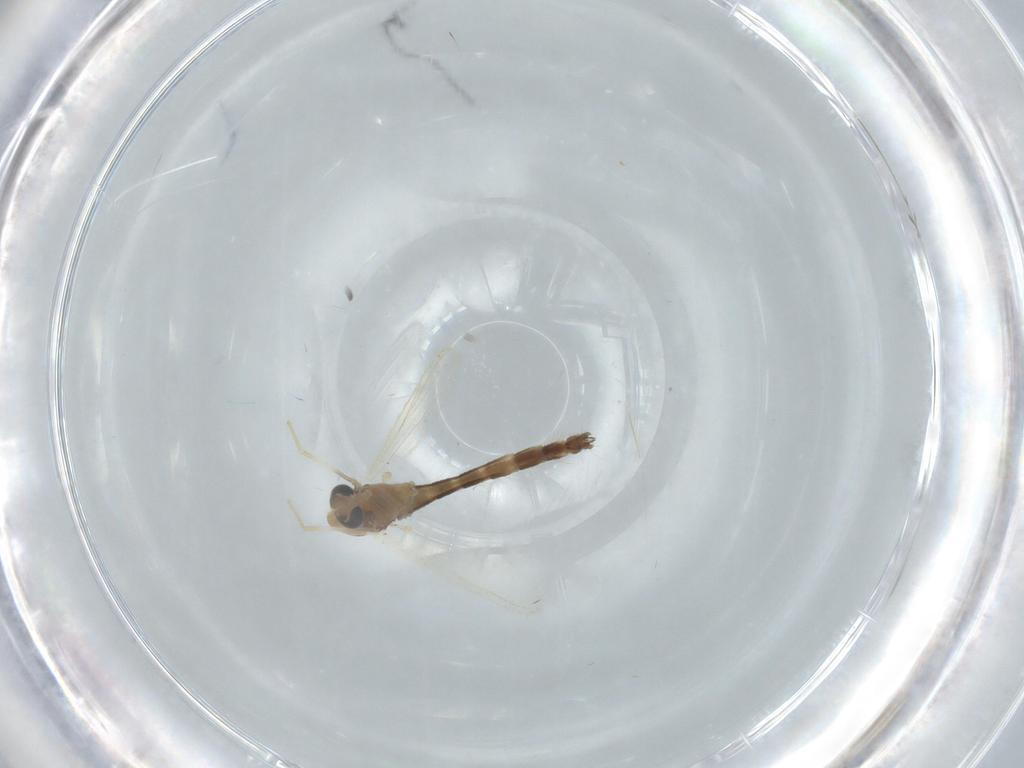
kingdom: Animalia
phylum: Arthropoda
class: Insecta
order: Diptera
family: Chironomidae
